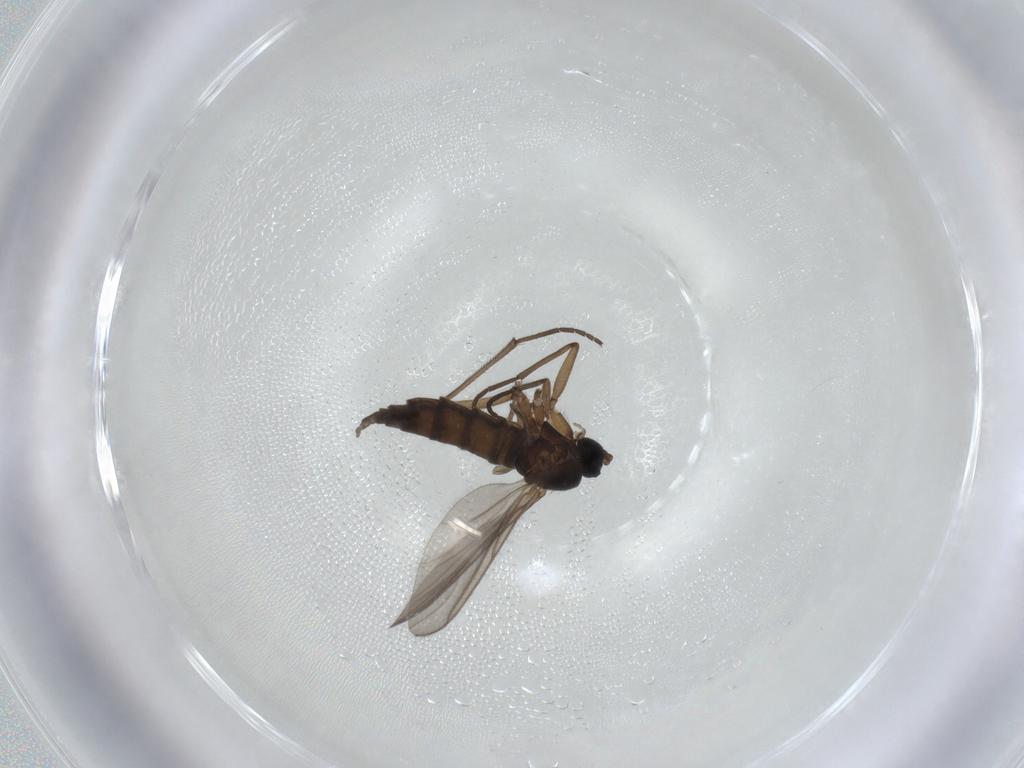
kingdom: Animalia
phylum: Arthropoda
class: Insecta
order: Diptera
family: Sciaridae
